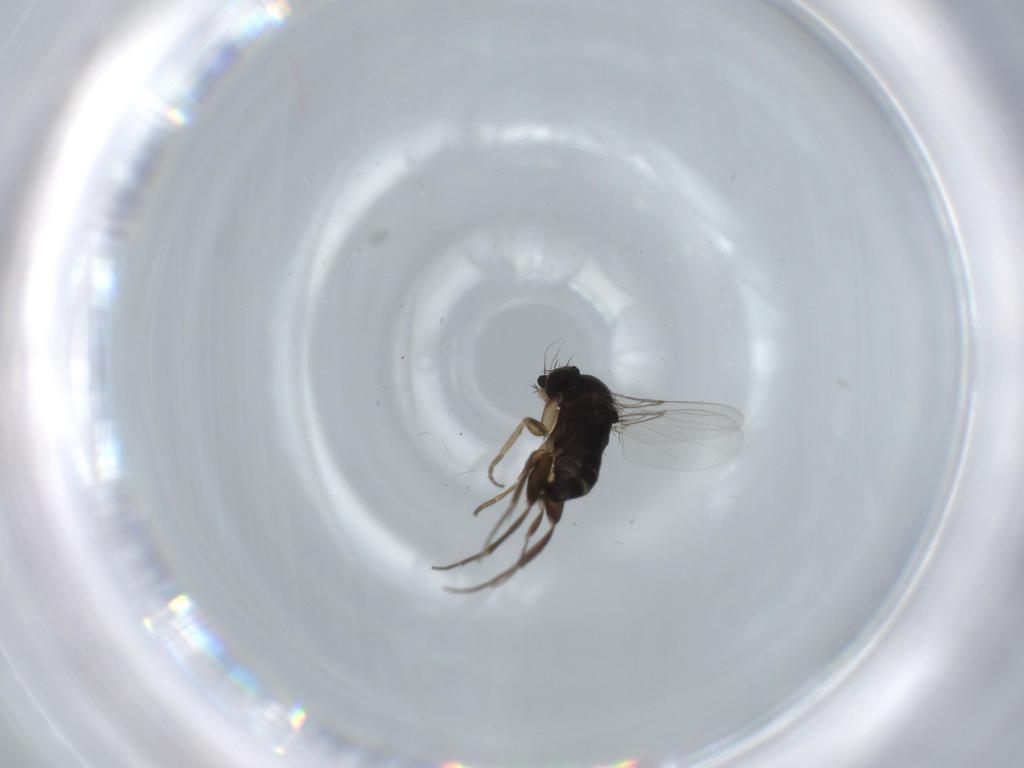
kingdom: Animalia
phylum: Arthropoda
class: Insecta
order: Diptera
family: Phoridae
